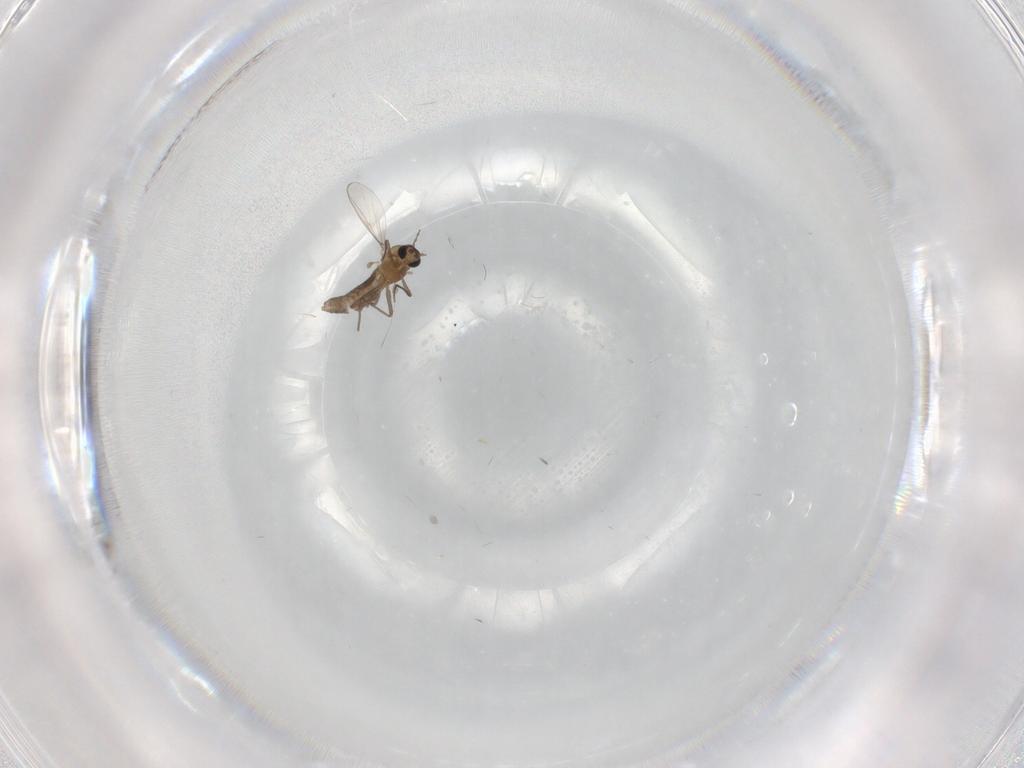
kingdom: Animalia
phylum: Arthropoda
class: Insecta
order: Diptera
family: Chironomidae
